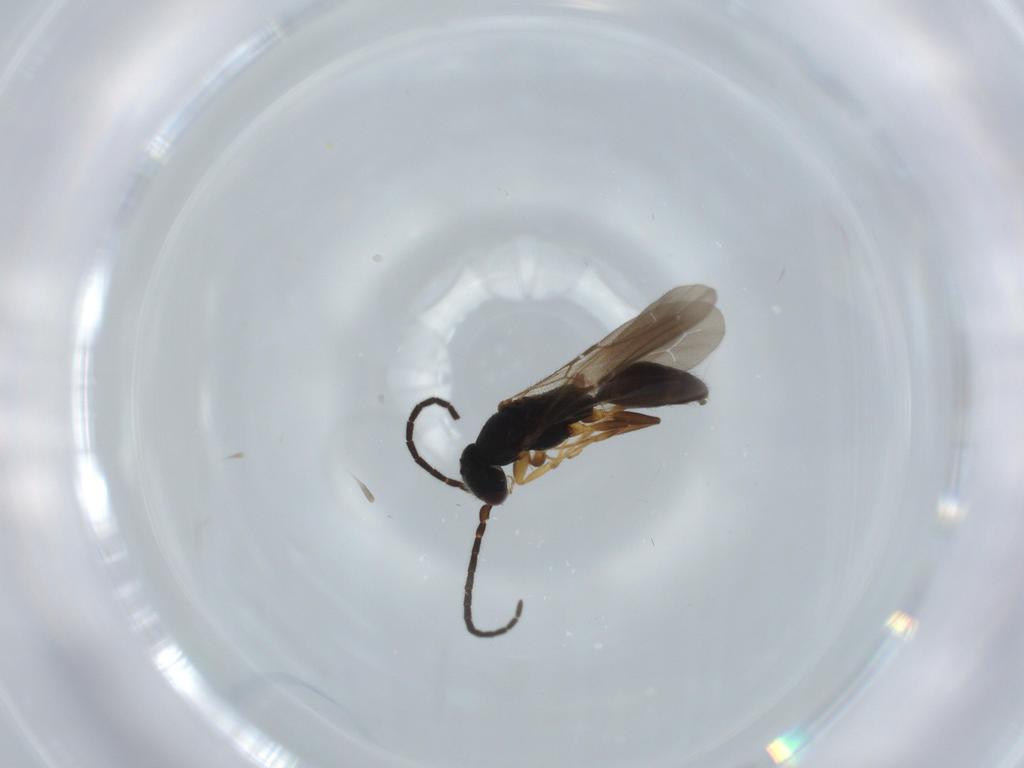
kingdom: Animalia
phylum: Arthropoda
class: Insecta
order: Hymenoptera
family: Bethylidae
